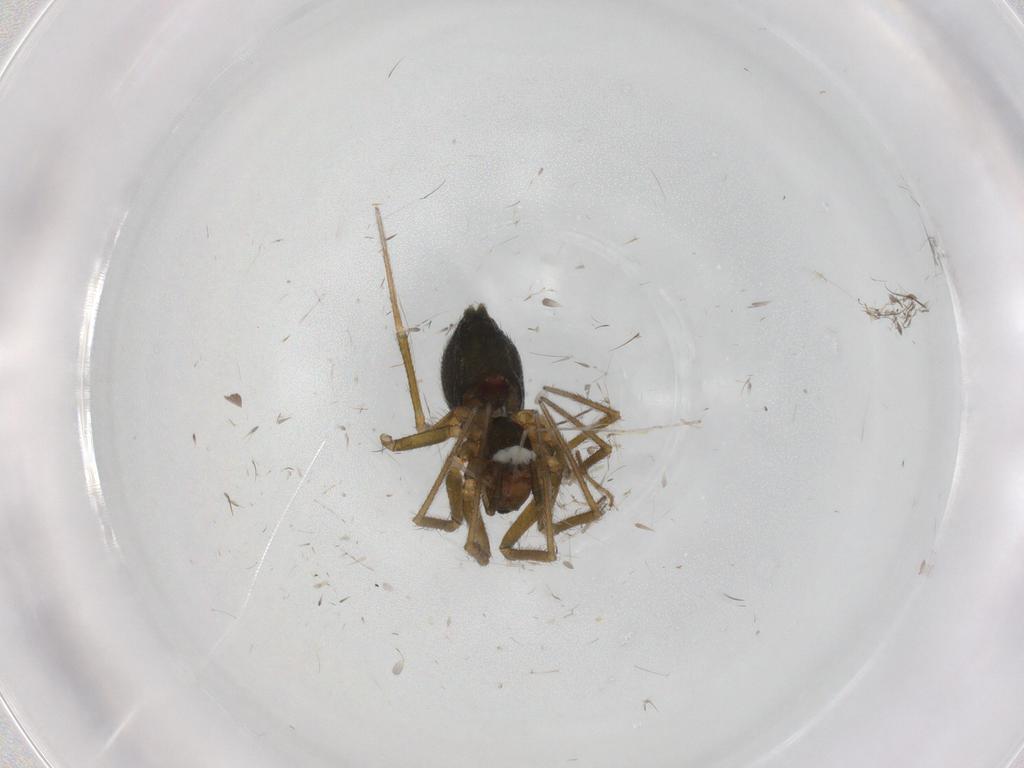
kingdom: Animalia
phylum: Arthropoda
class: Arachnida
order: Araneae
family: Linyphiidae
